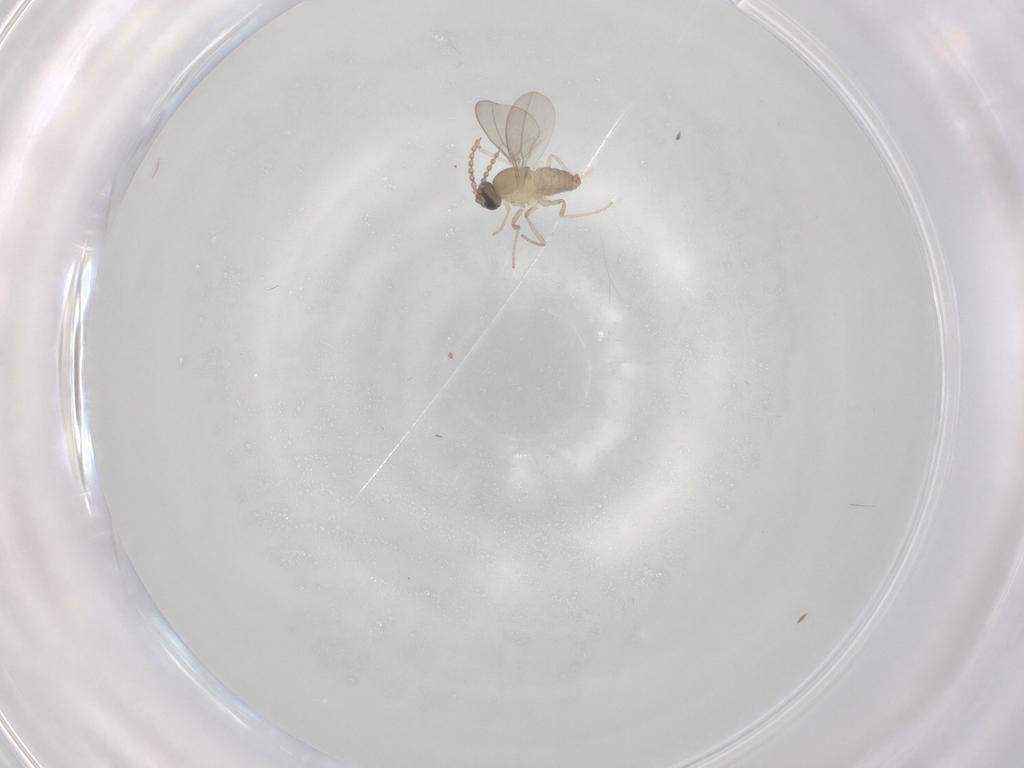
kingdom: Animalia
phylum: Arthropoda
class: Insecta
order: Diptera
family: Cecidomyiidae
